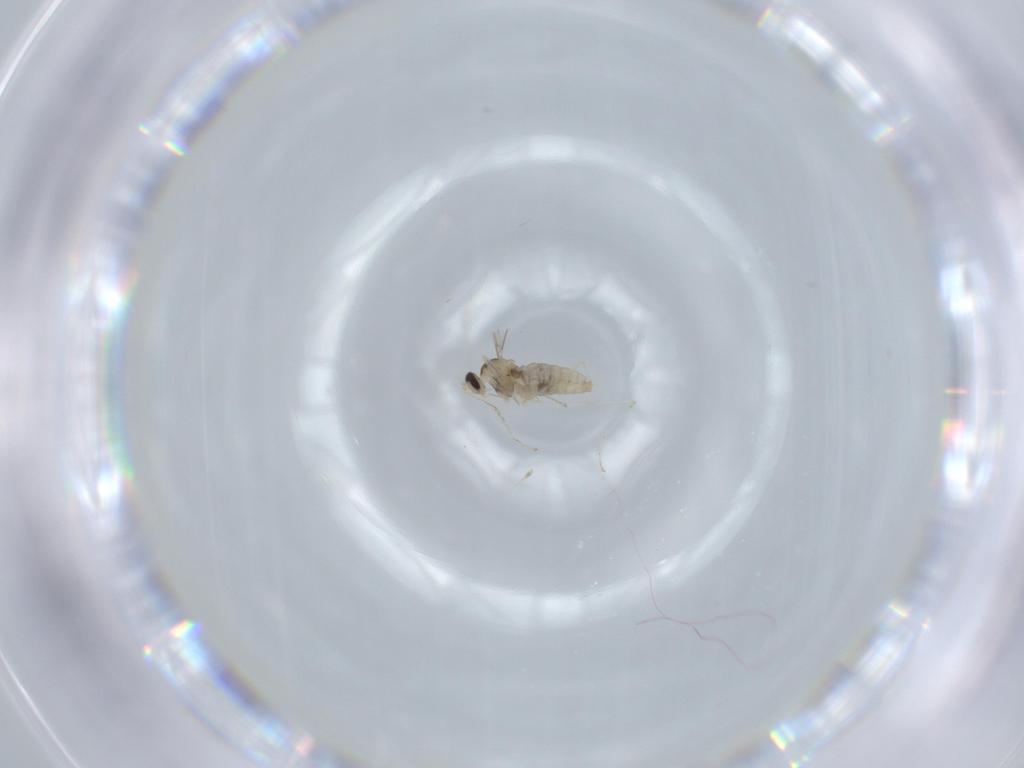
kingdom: Animalia
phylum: Arthropoda
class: Insecta
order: Diptera
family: Cecidomyiidae
